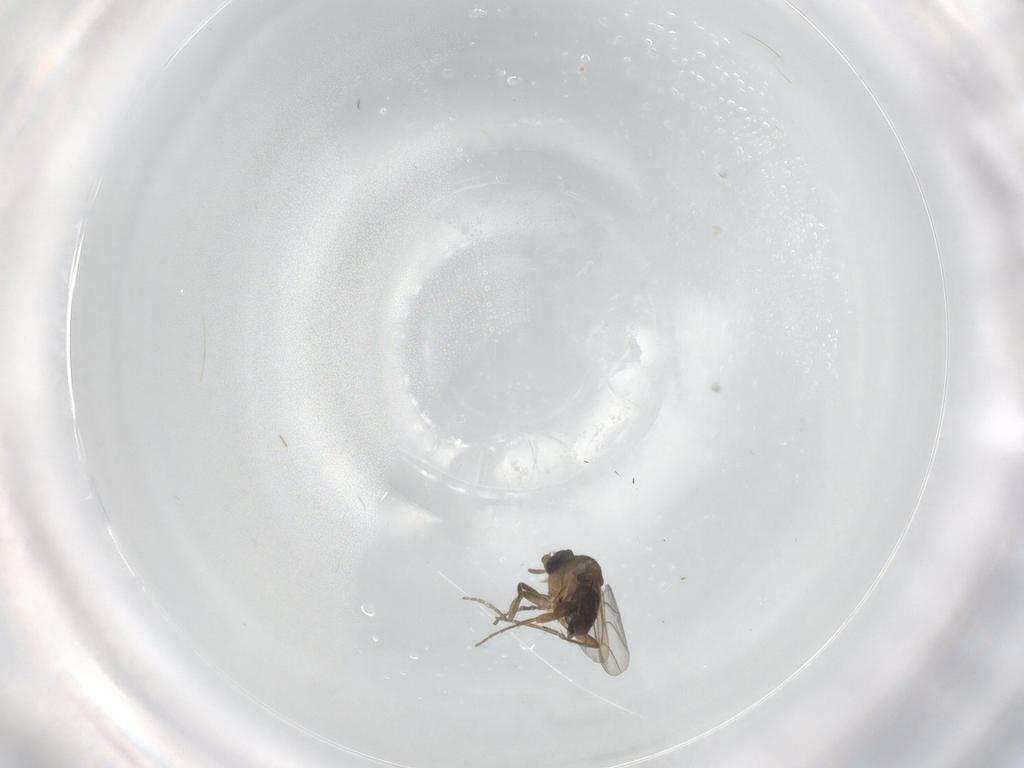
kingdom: Animalia
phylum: Arthropoda
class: Insecta
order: Diptera
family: Phoridae
